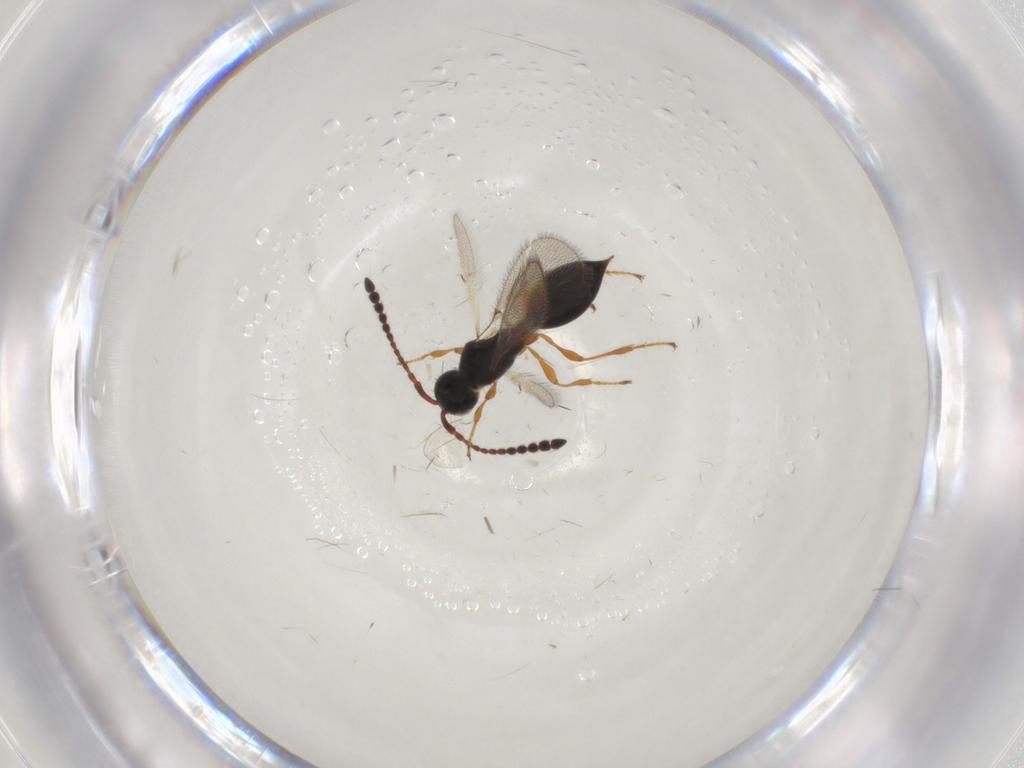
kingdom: Animalia
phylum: Arthropoda
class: Insecta
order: Hymenoptera
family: Diapriidae
